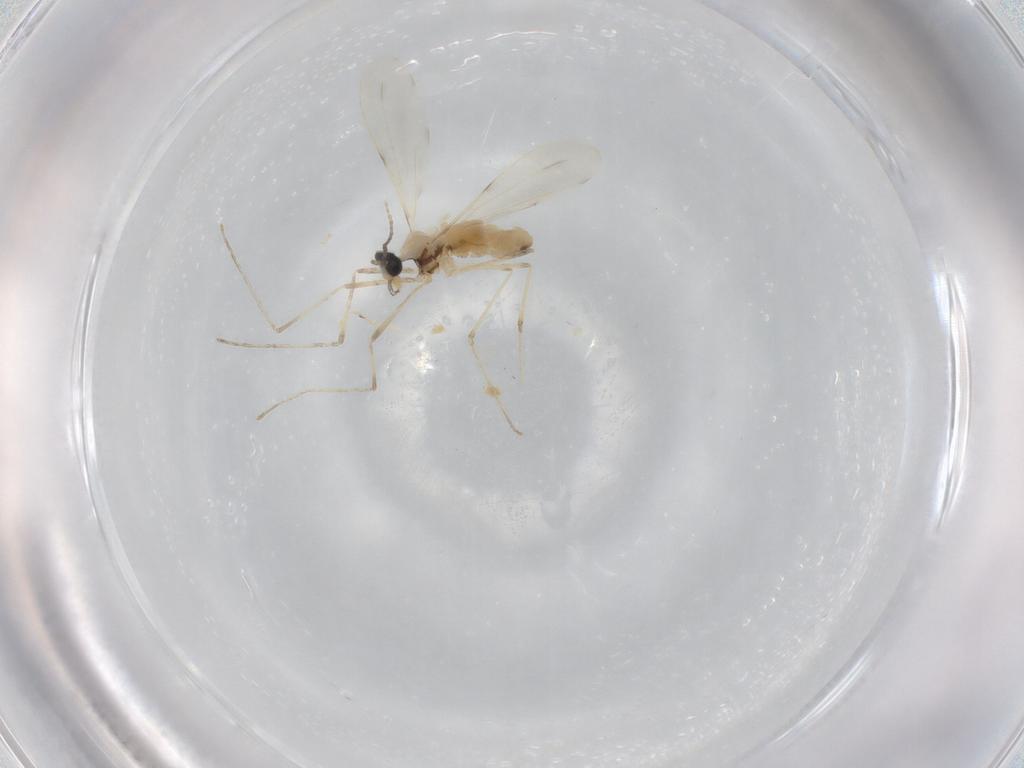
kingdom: Animalia
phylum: Arthropoda
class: Insecta
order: Diptera
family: Cecidomyiidae
